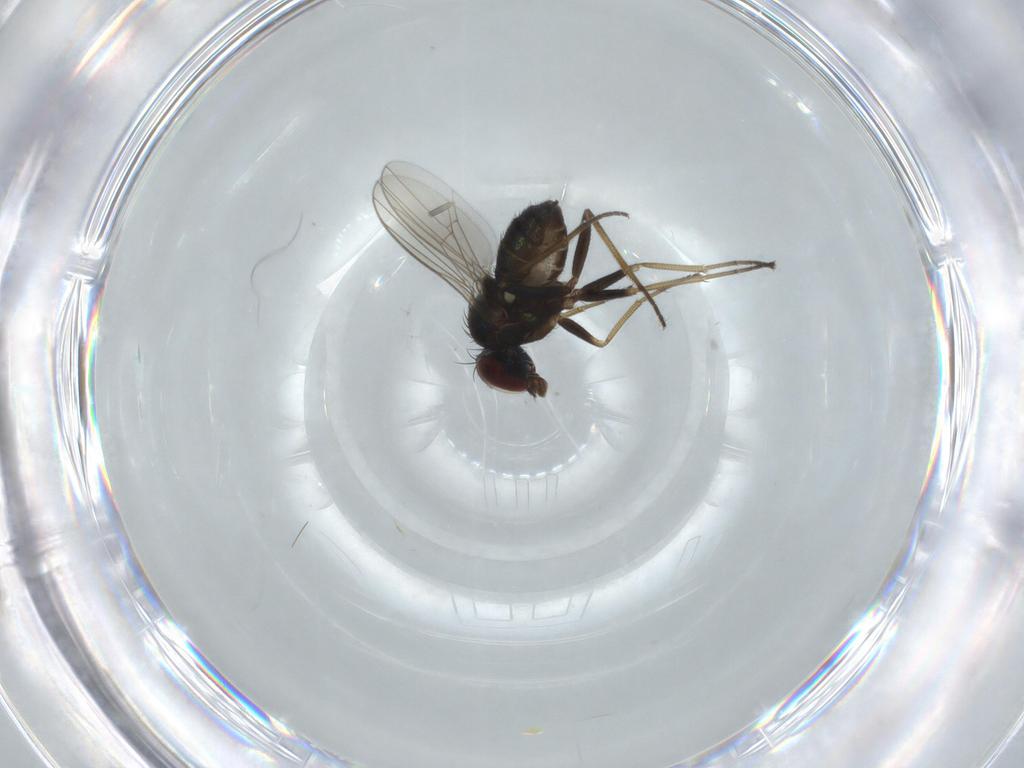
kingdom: Animalia
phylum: Arthropoda
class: Insecta
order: Diptera
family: Dolichopodidae
